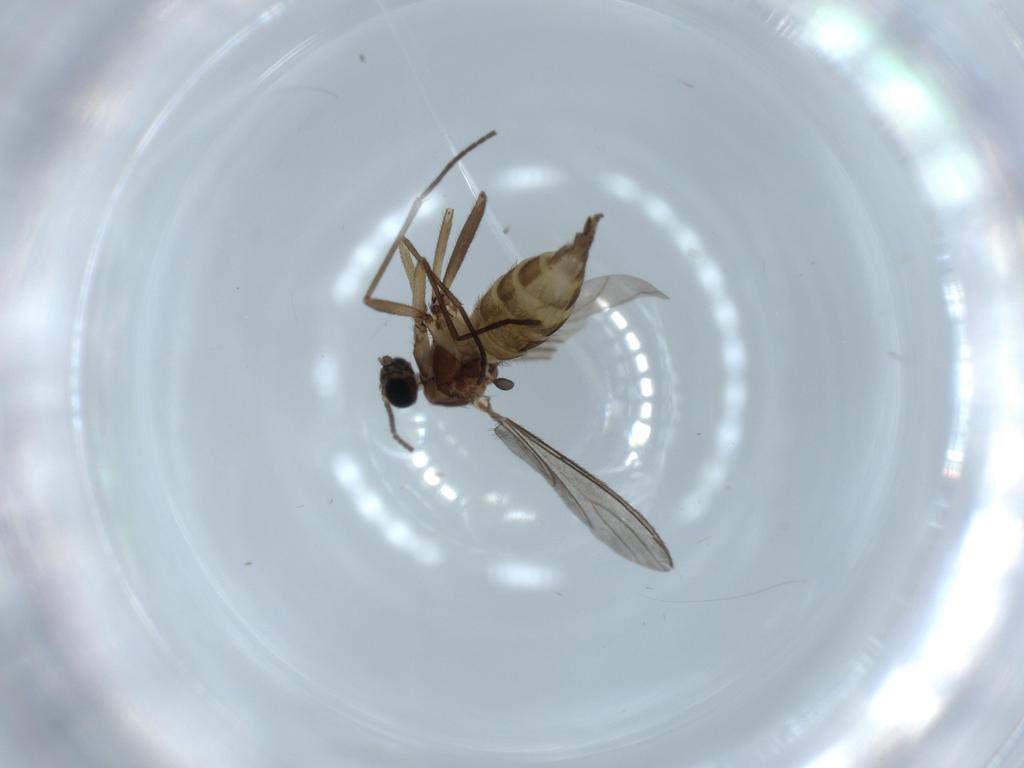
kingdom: Animalia
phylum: Arthropoda
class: Insecta
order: Diptera
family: Sciaridae
